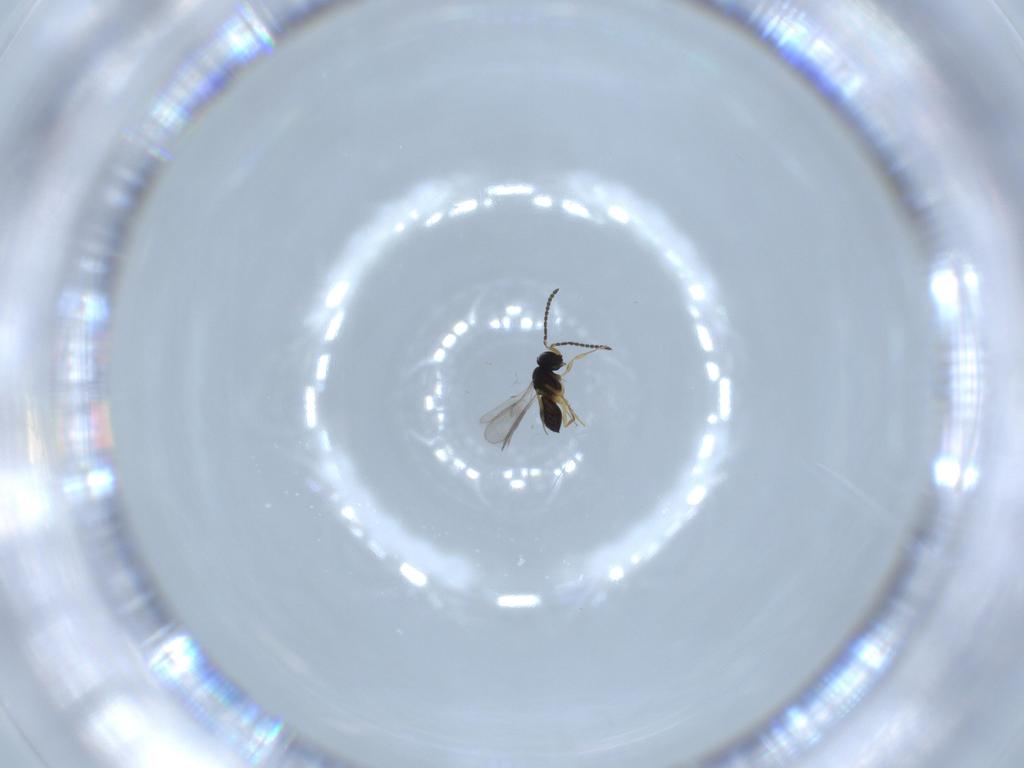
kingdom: Animalia
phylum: Arthropoda
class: Insecta
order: Hymenoptera
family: Scelionidae
